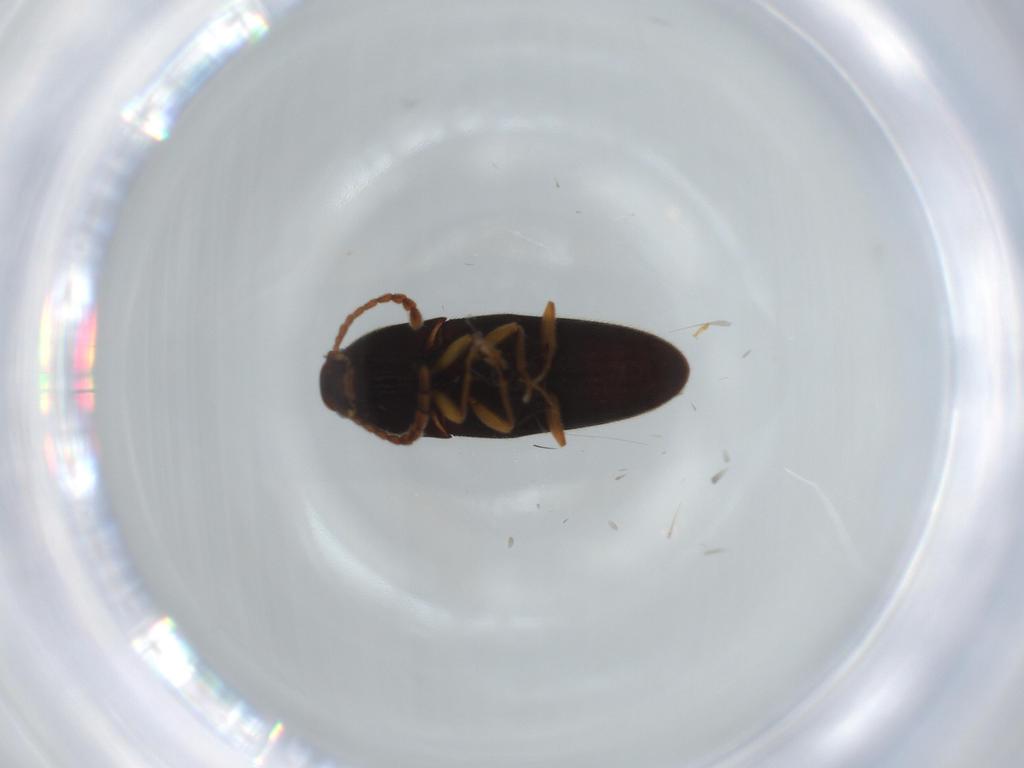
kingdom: Animalia
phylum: Arthropoda
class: Insecta
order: Coleoptera
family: Elateridae
